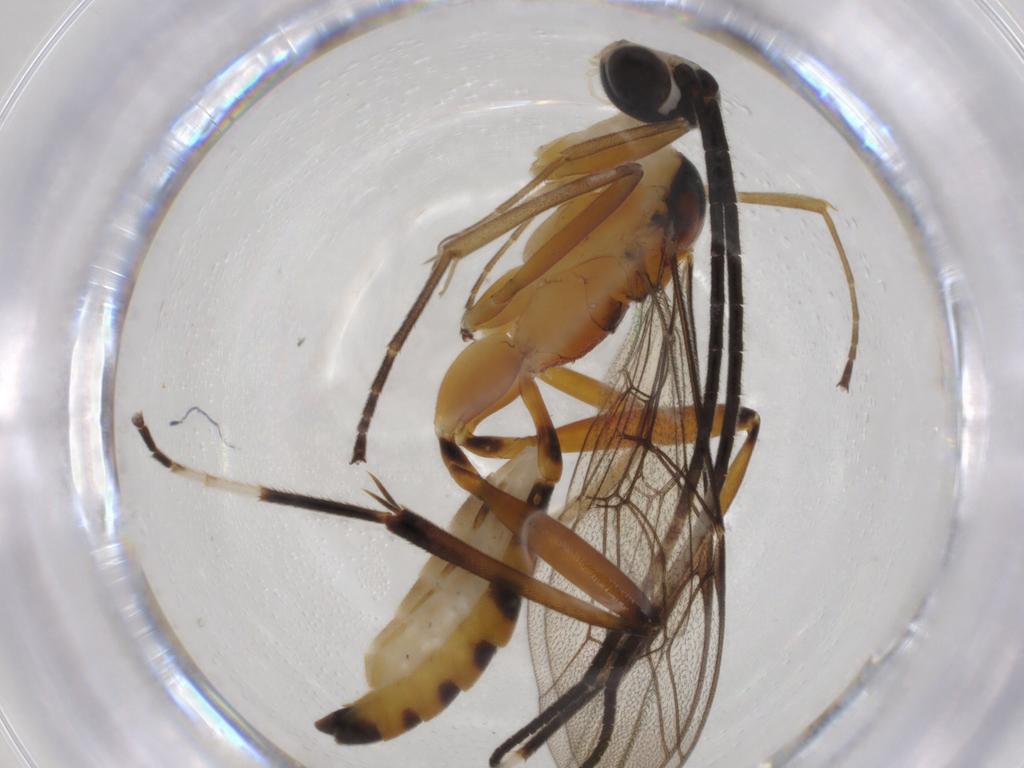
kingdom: Animalia
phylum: Arthropoda
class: Insecta
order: Hymenoptera
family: Ichneumonidae
